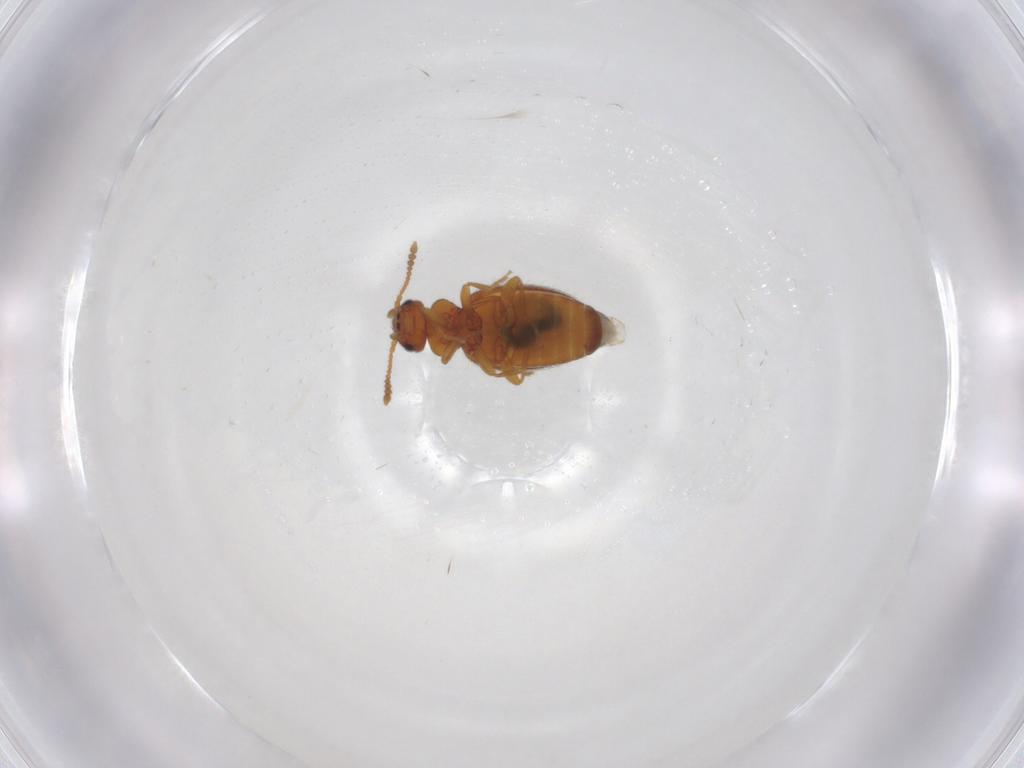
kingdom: Animalia
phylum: Arthropoda
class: Insecta
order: Coleoptera
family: Anthicidae
